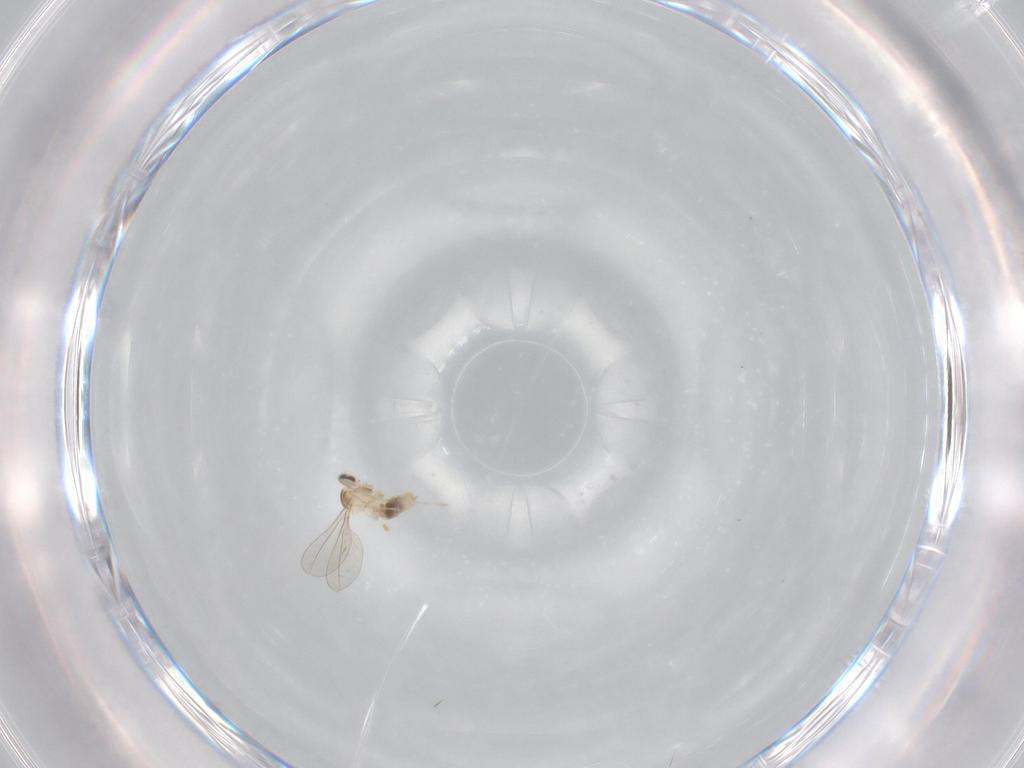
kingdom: Animalia
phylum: Arthropoda
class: Insecta
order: Diptera
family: Cecidomyiidae
